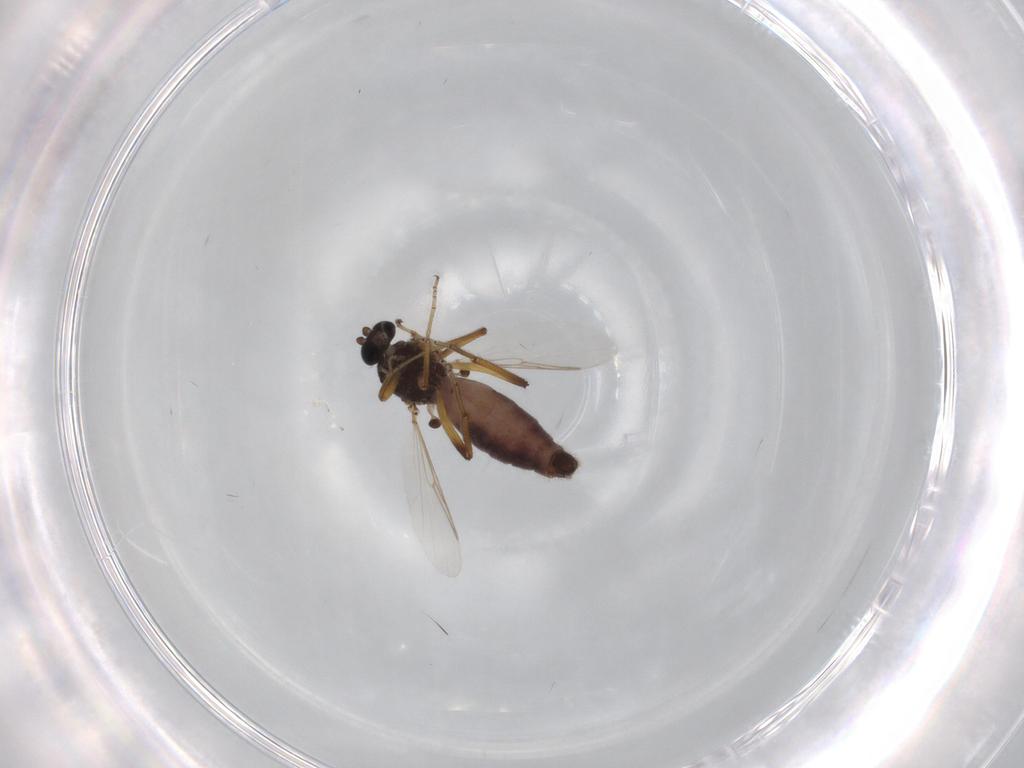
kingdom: Animalia
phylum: Arthropoda
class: Insecta
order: Diptera
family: Ceratopogonidae
